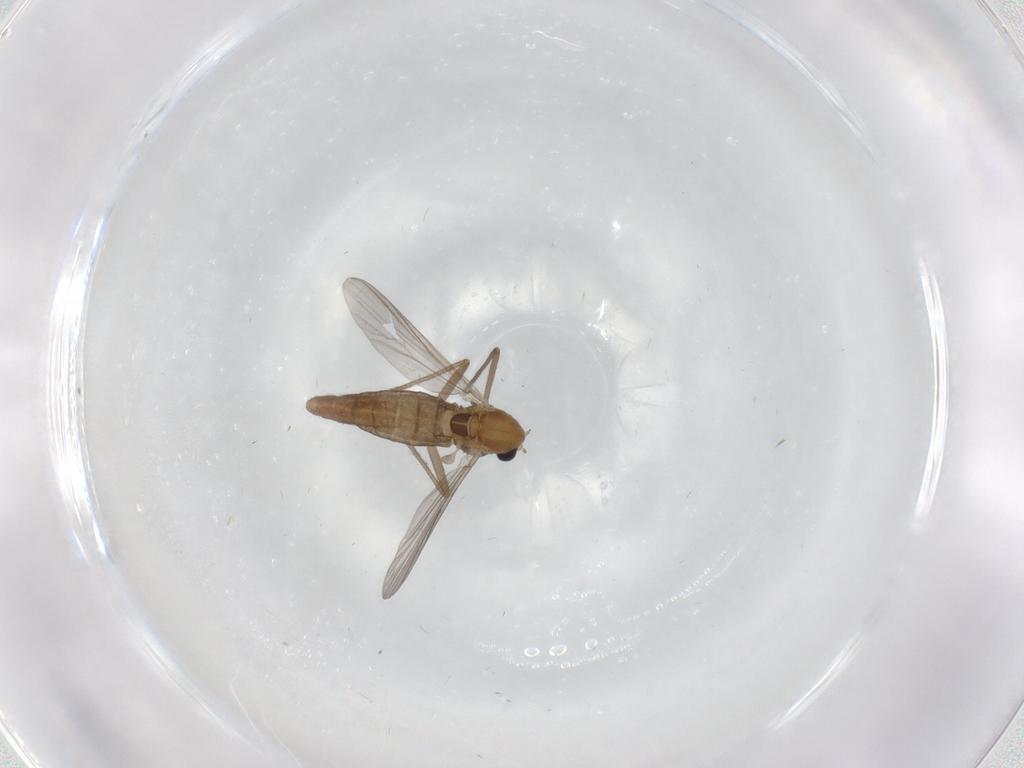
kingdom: Animalia
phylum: Arthropoda
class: Insecta
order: Diptera
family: Chironomidae
